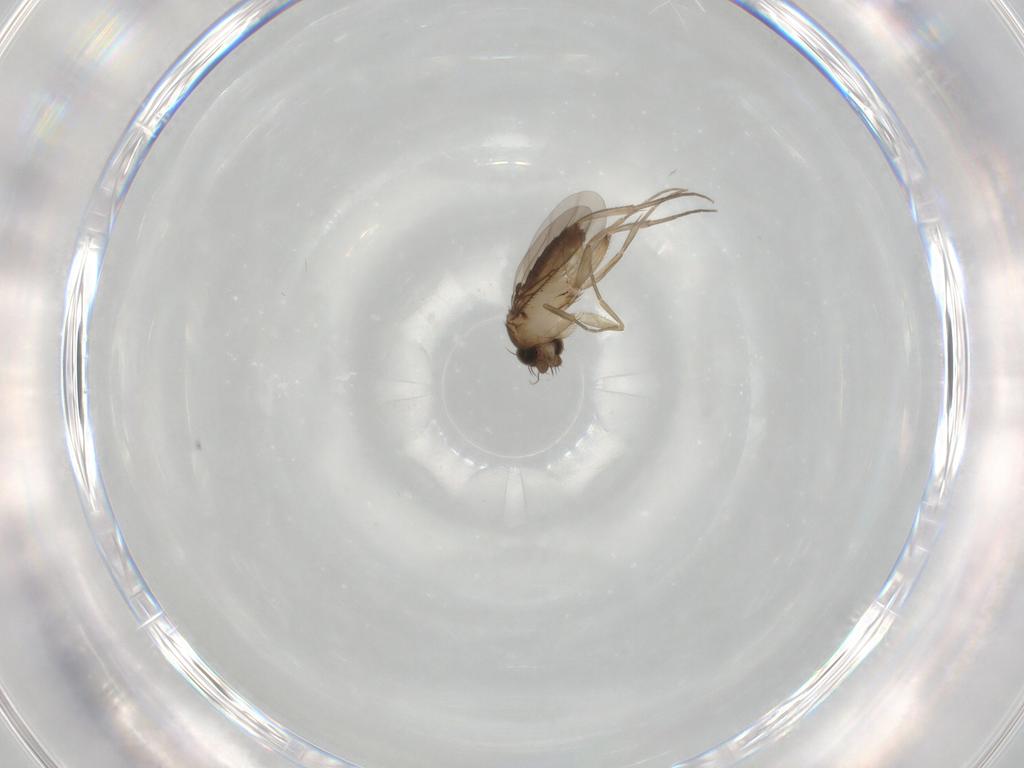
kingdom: Animalia
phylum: Arthropoda
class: Insecta
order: Diptera
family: Phoridae
